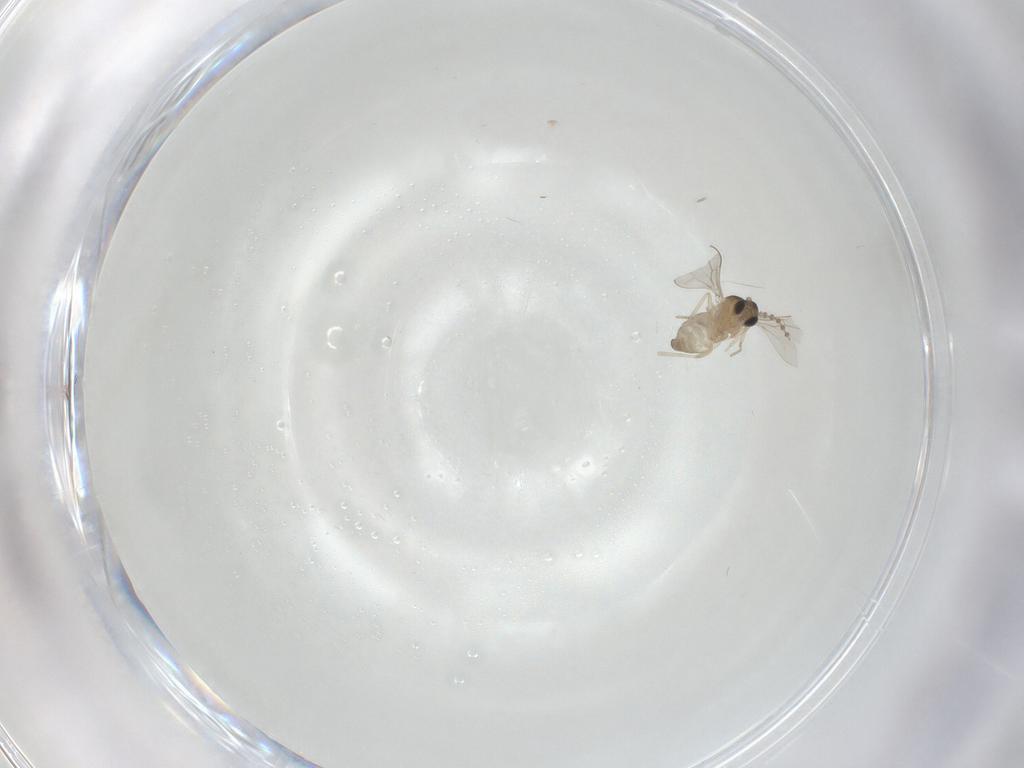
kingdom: Animalia
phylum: Arthropoda
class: Insecta
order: Diptera
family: Cecidomyiidae
